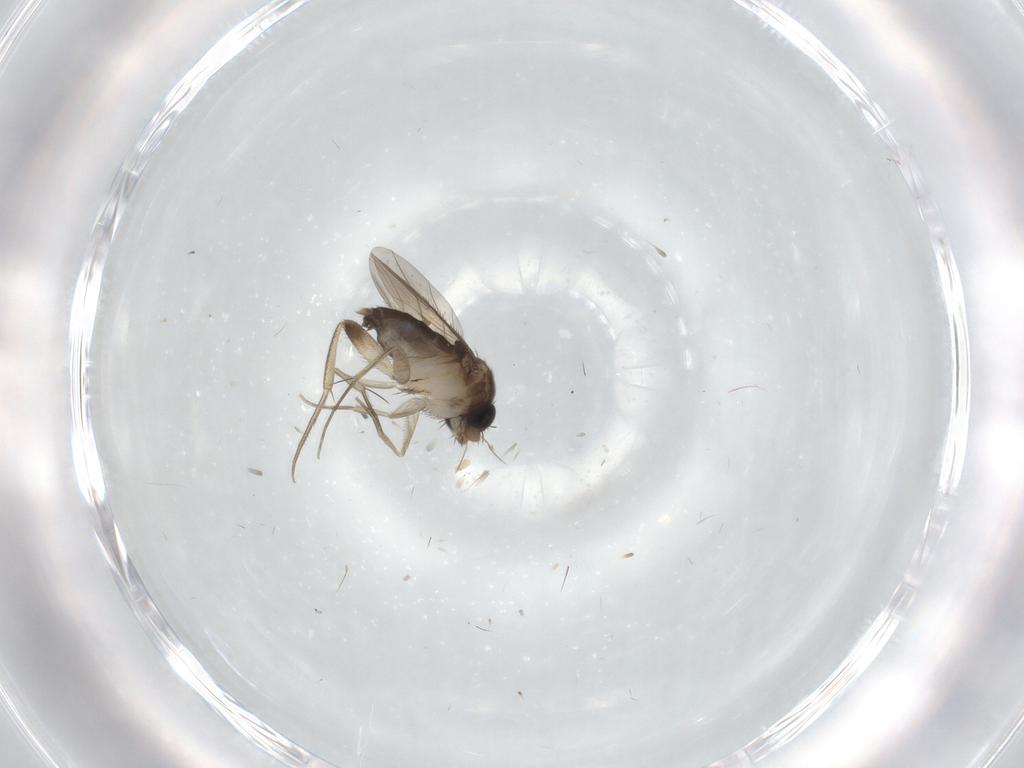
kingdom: Animalia
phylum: Arthropoda
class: Insecta
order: Diptera
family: Phoridae
